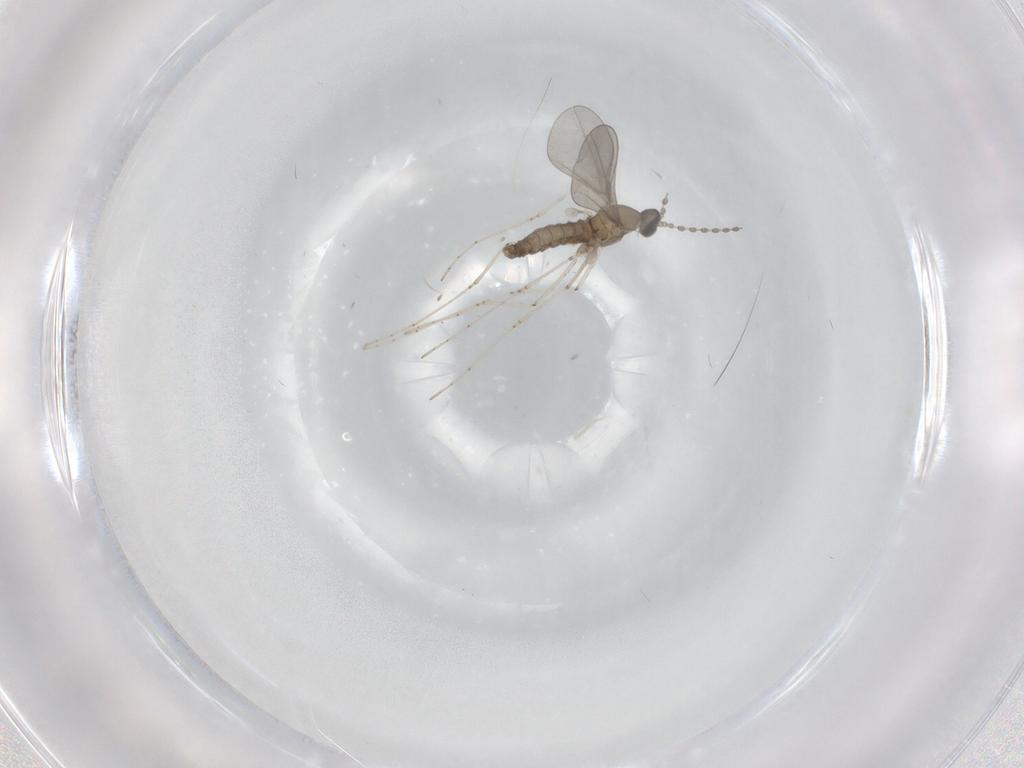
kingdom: Animalia
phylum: Arthropoda
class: Insecta
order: Diptera
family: Cecidomyiidae
